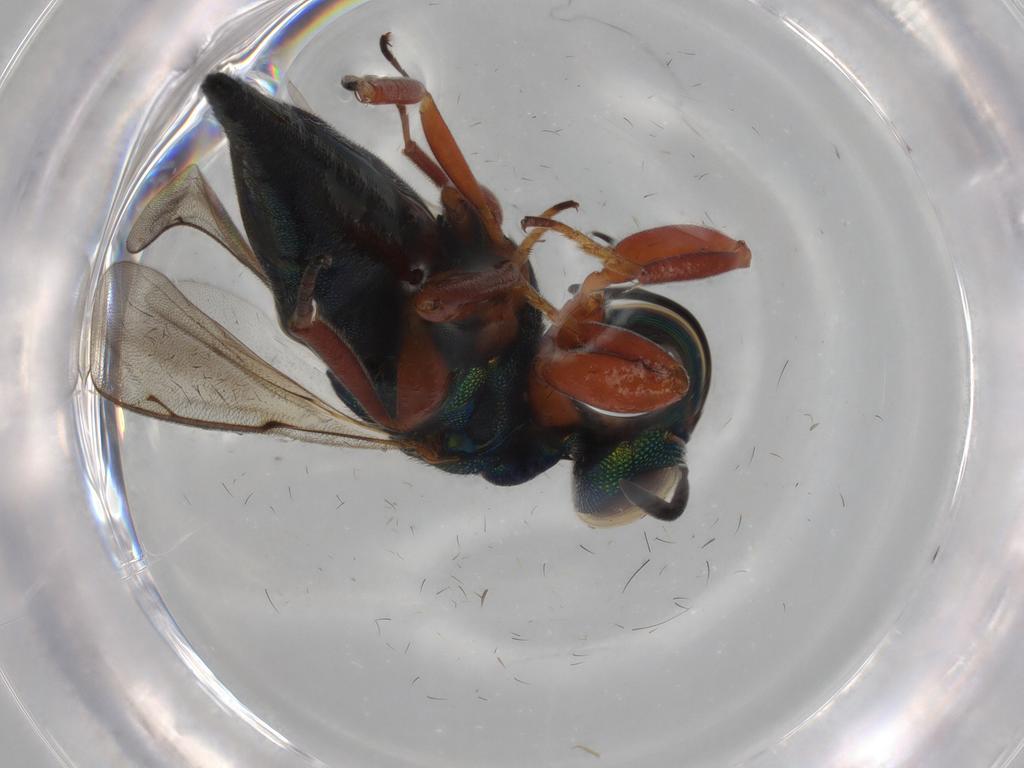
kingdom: Animalia
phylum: Arthropoda
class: Insecta
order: Hymenoptera
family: Lyciscidae
